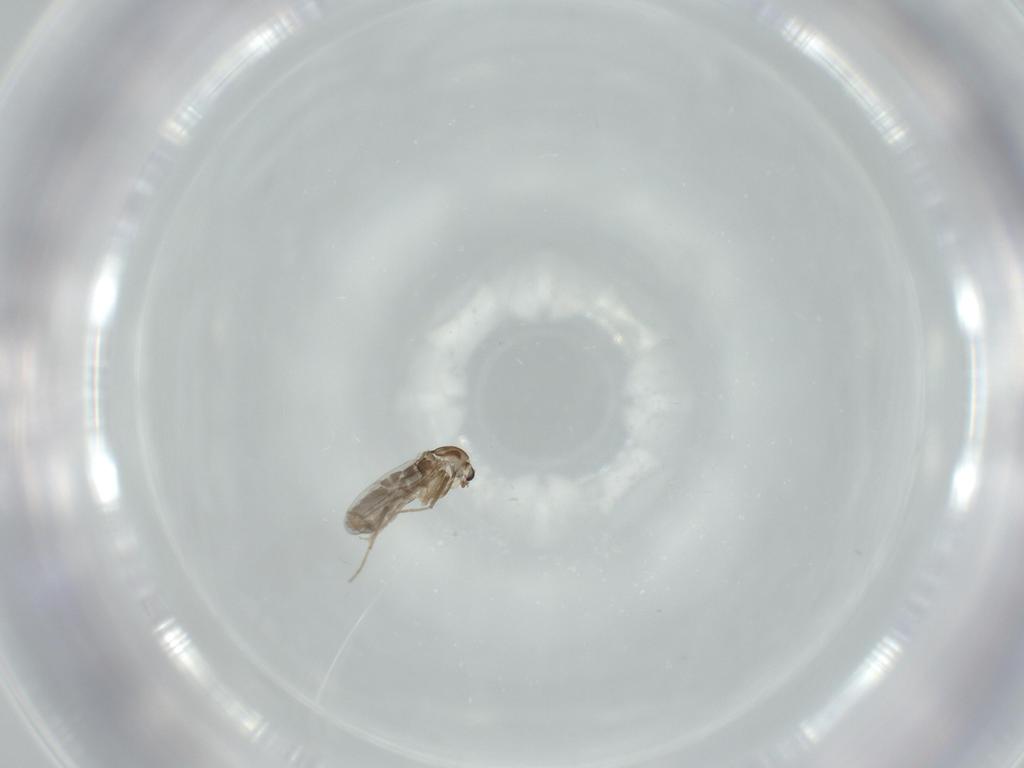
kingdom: Animalia
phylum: Arthropoda
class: Insecta
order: Diptera
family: Chironomidae
